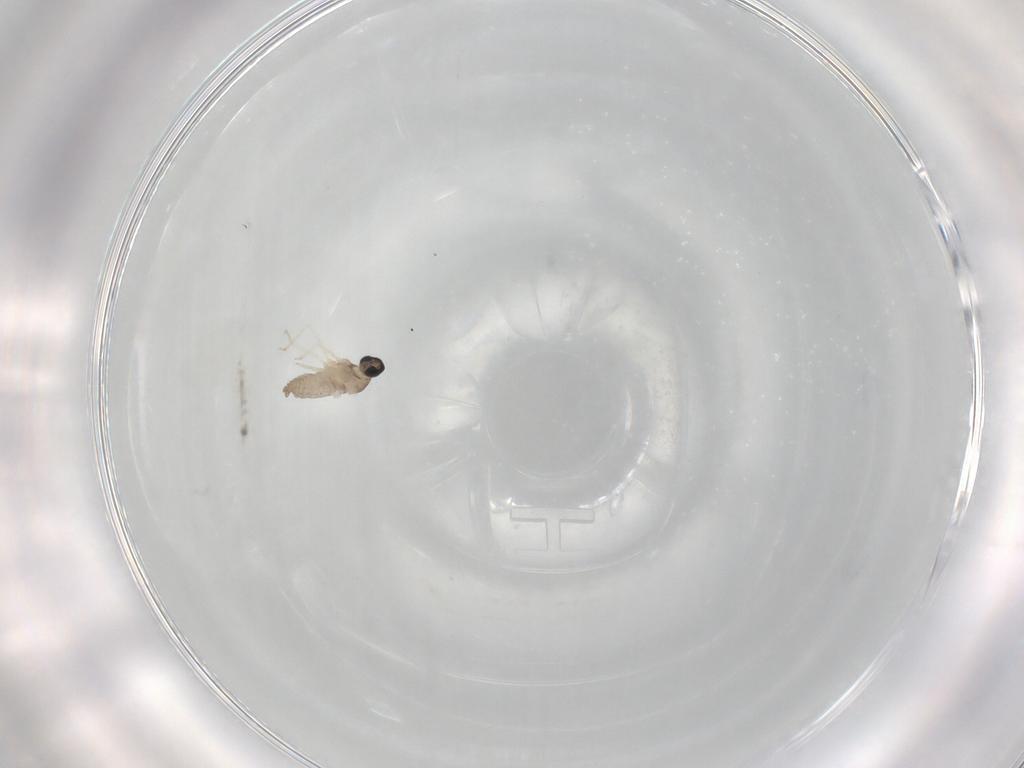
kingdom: Animalia
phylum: Arthropoda
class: Insecta
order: Diptera
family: Cecidomyiidae
